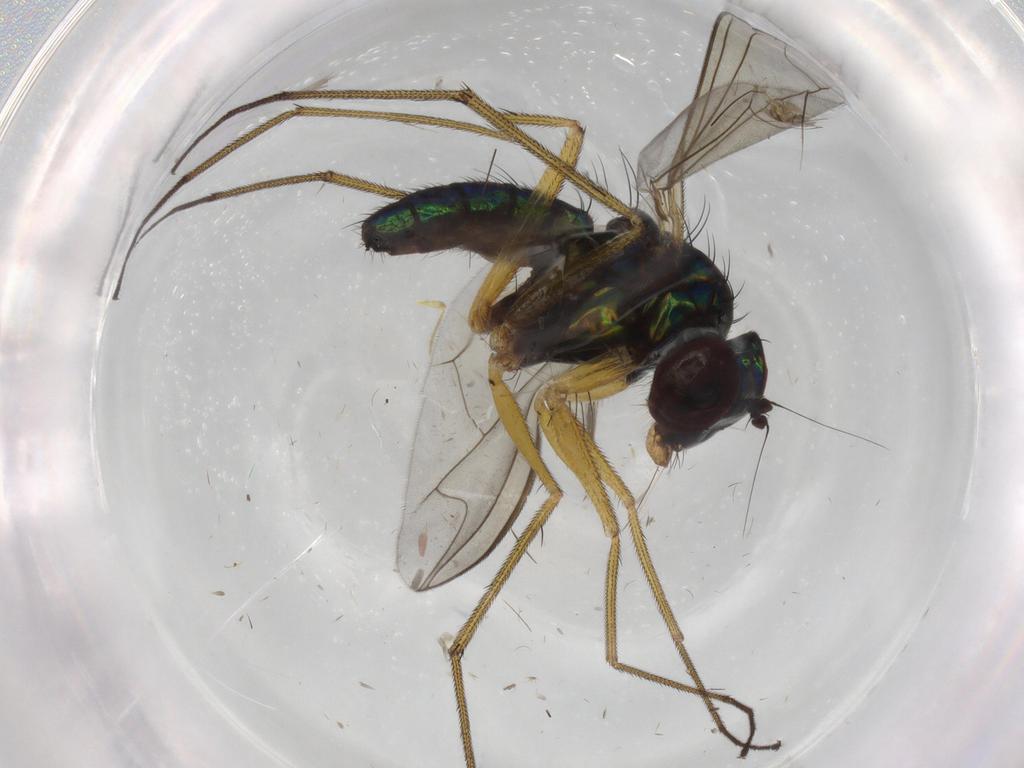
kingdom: Animalia
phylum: Arthropoda
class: Insecta
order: Diptera
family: Dolichopodidae
